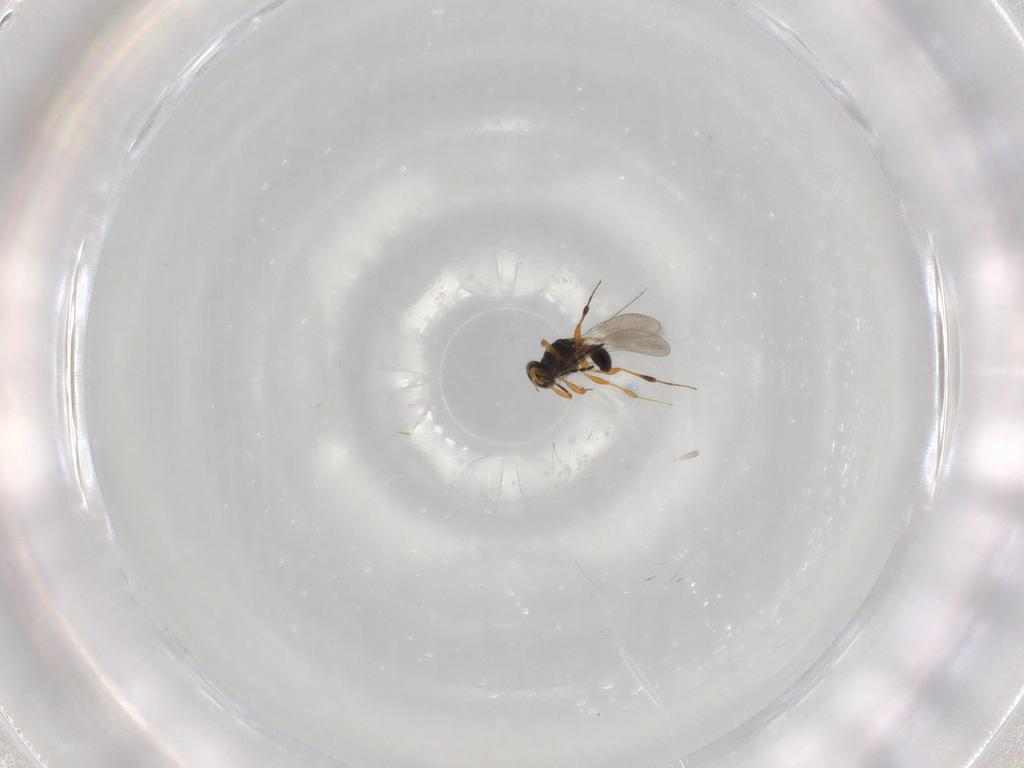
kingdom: Animalia
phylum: Arthropoda
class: Insecta
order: Hymenoptera
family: Platygastridae
